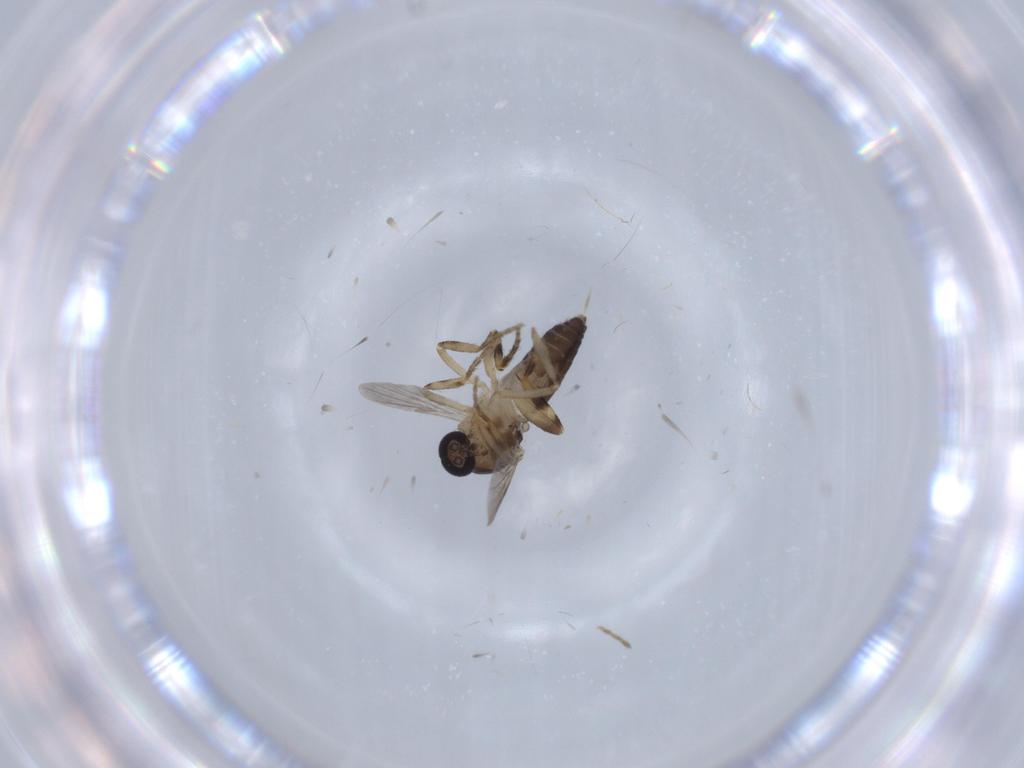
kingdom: Animalia
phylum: Arthropoda
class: Insecta
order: Diptera
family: Ceratopogonidae
